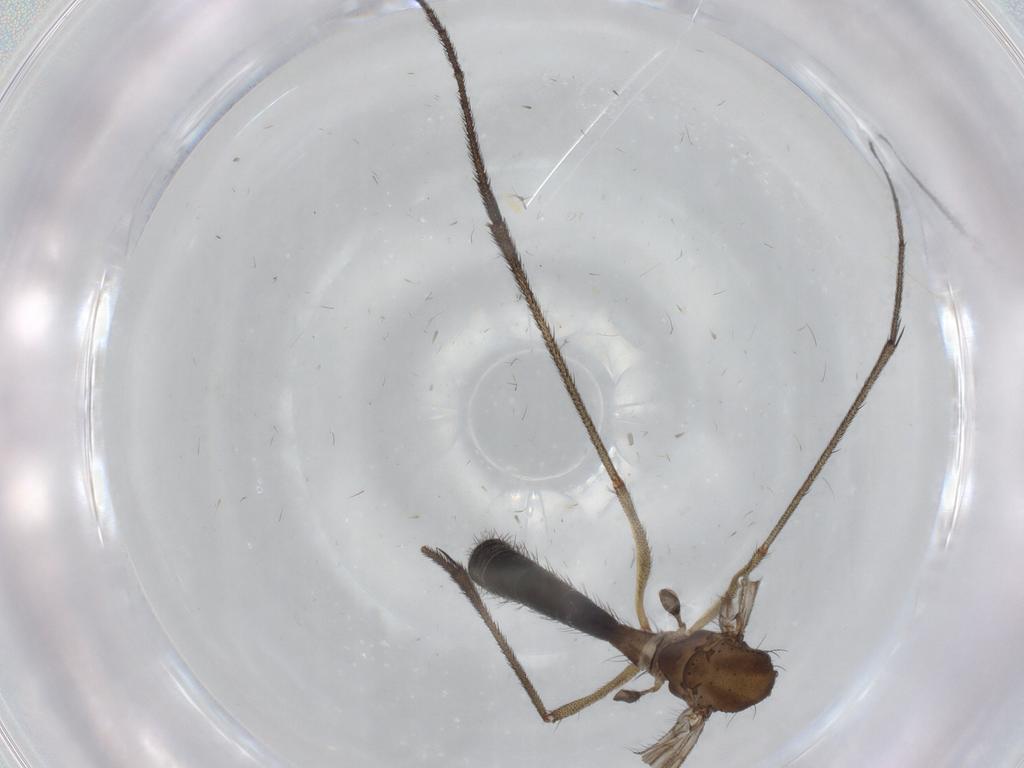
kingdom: Animalia
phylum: Arthropoda
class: Insecta
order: Diptera
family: Ditomyiidae
